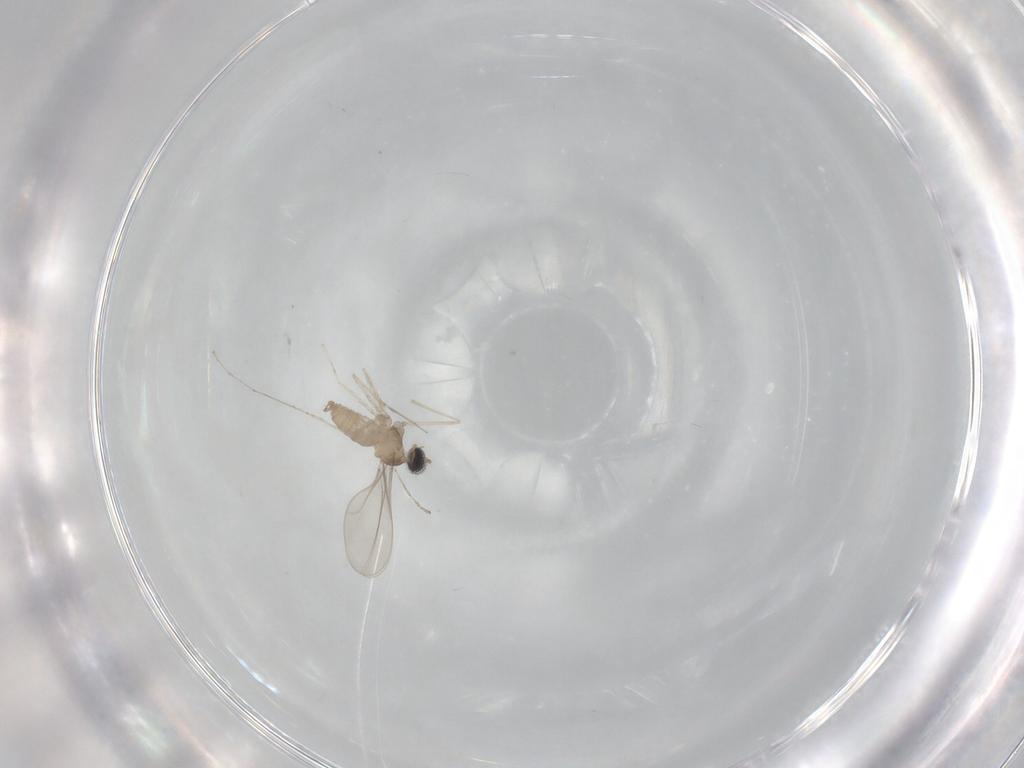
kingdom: Animalia
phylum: Arthropoda
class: Insecta
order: Diptera
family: Cecidomyiidae
